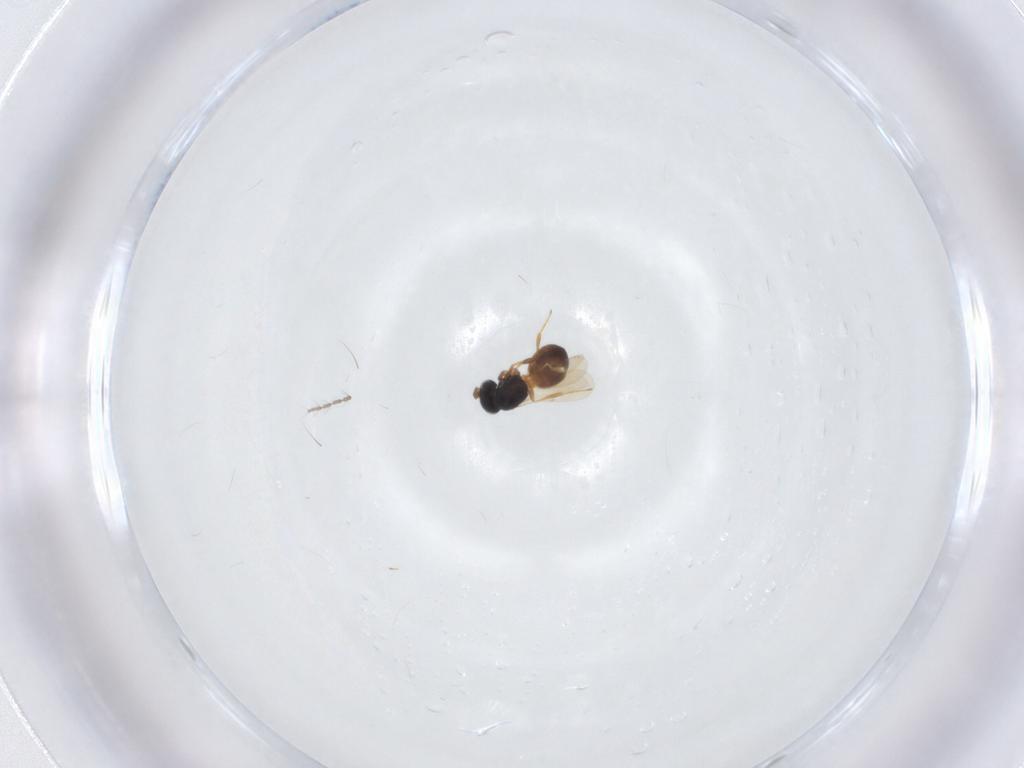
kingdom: Animalia
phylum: Arthropoda
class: Insecta
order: Hymenoptera
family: Scelionidae
